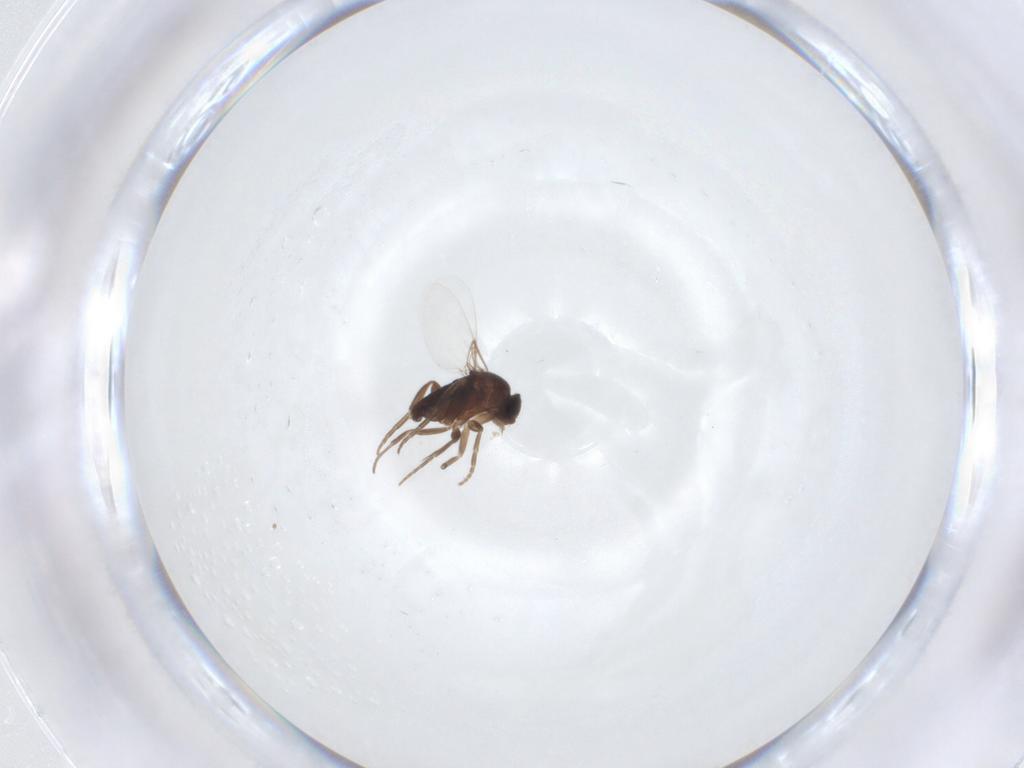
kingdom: Animalia
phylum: Arthropoda
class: Insecta
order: Diptera
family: Phoridae
